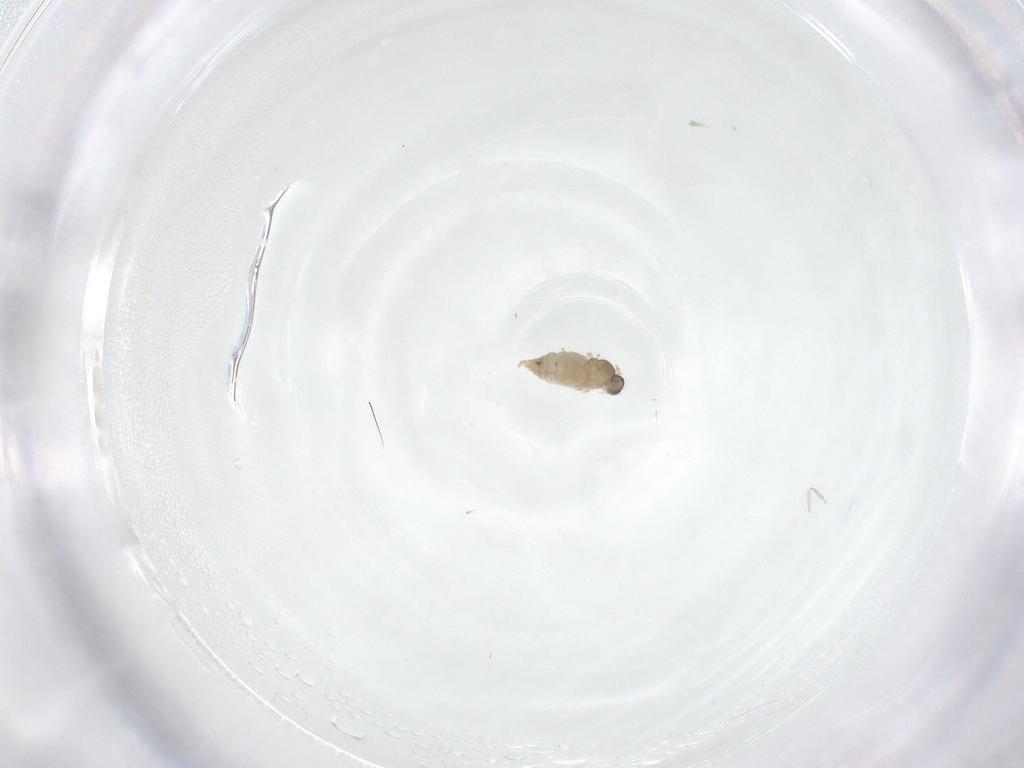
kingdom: Animalia
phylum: Arthropoda
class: Insecta
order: Diptera
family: Cecidomyiidae
